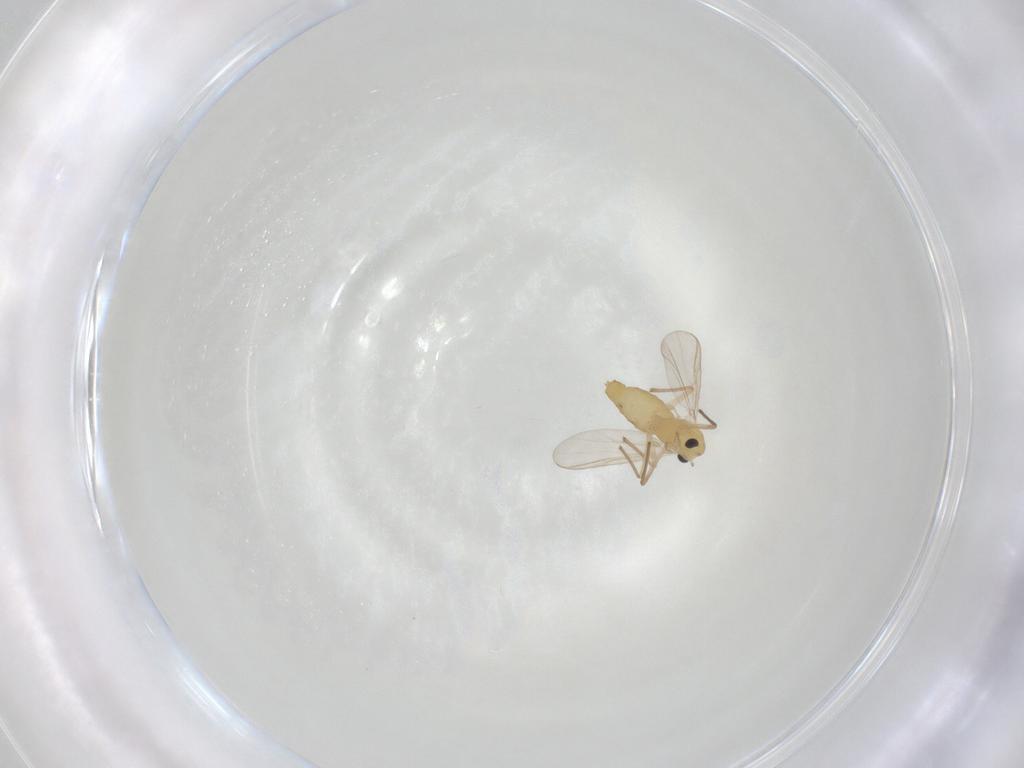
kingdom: Animalia
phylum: Arthropoda
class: Insecta
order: Diptera
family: Chironomidae
